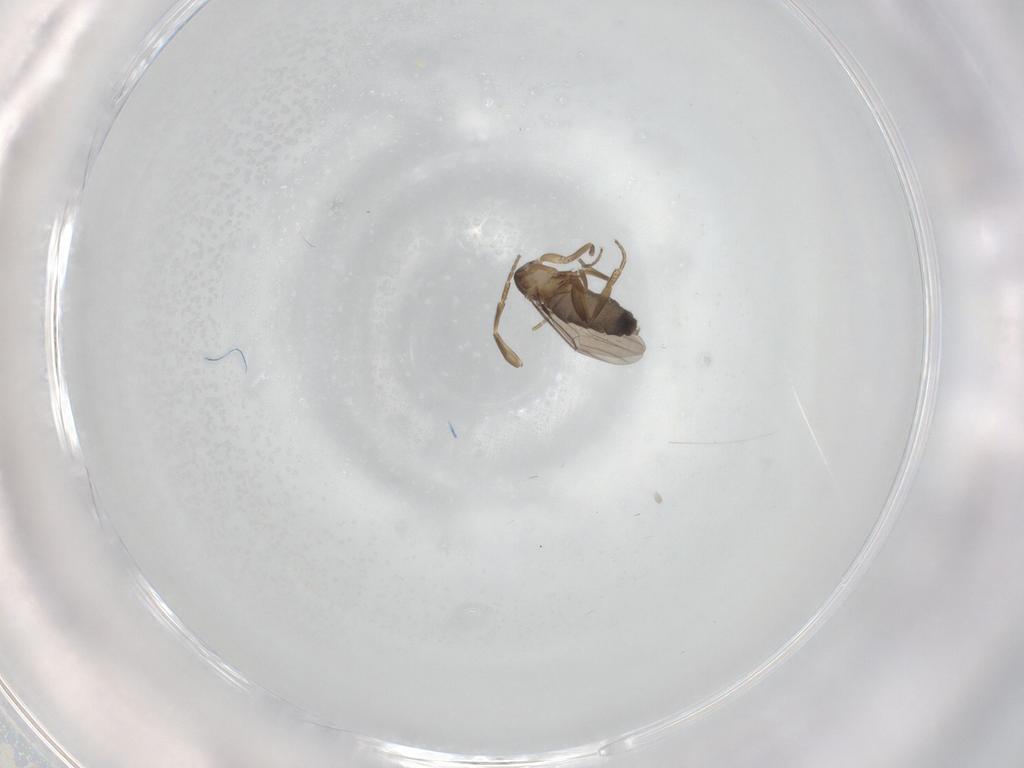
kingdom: Animalia
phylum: Arthropoda
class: Insecta
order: Diptera
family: Phoridae
